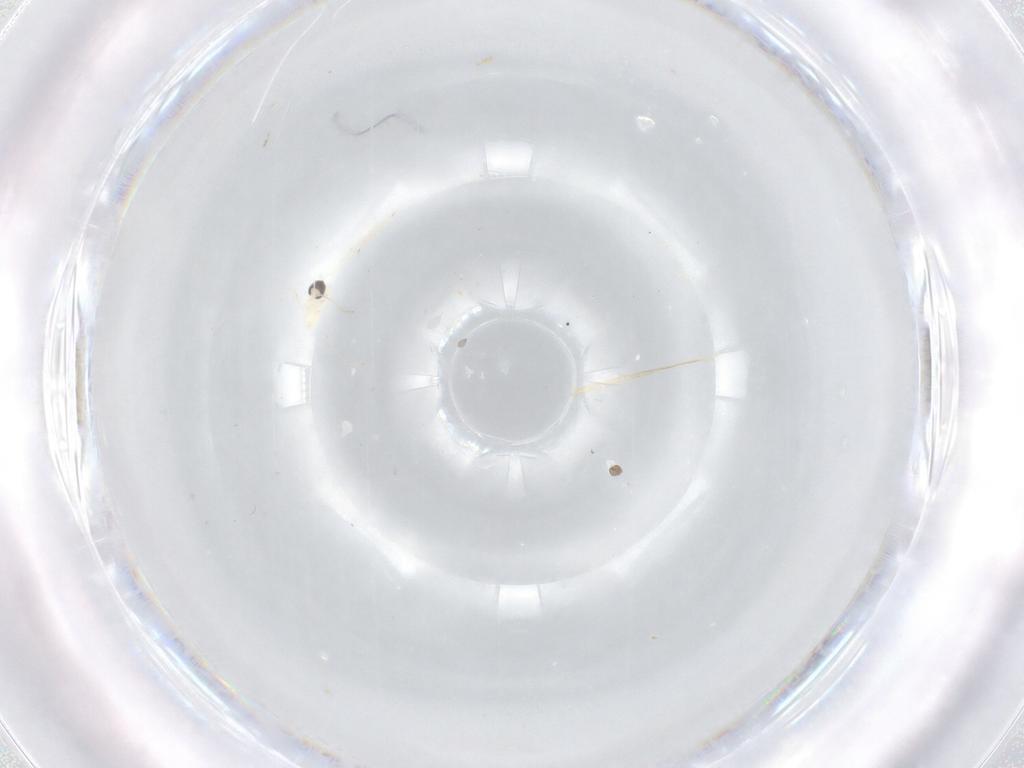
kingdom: Animalia
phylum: Arthropoda
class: Insecta
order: Diptera
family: Cecidomyiidae
